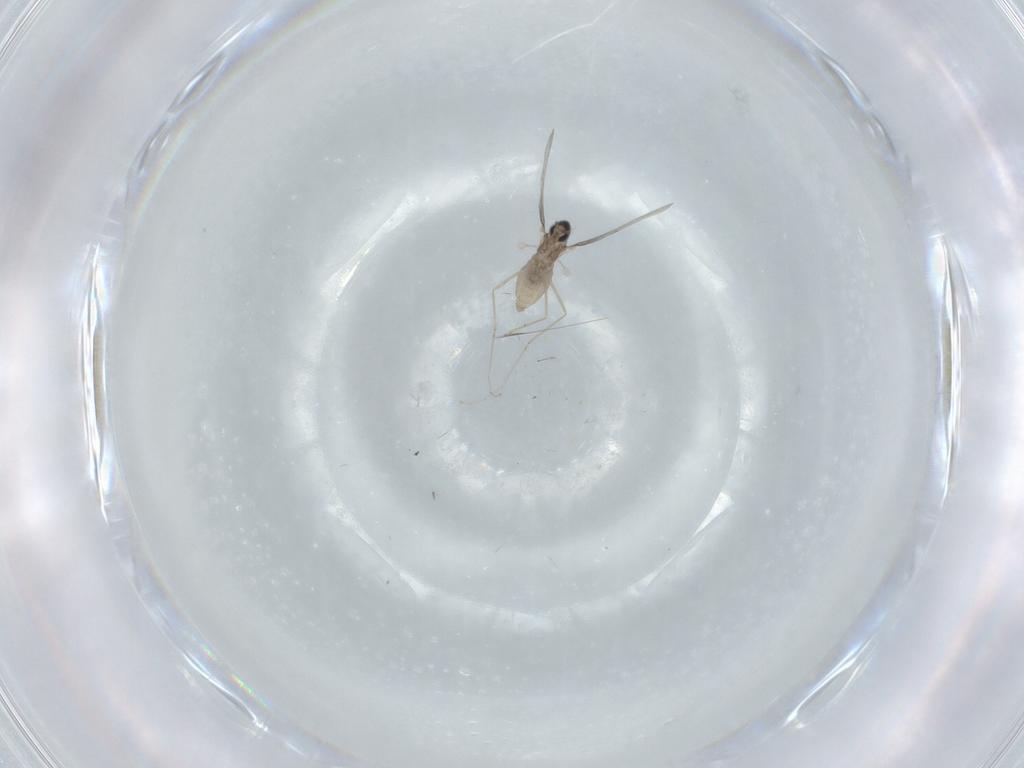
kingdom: Animalia
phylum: Arthropoda
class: Insecta
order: Diptera
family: Cecidomyiidae
